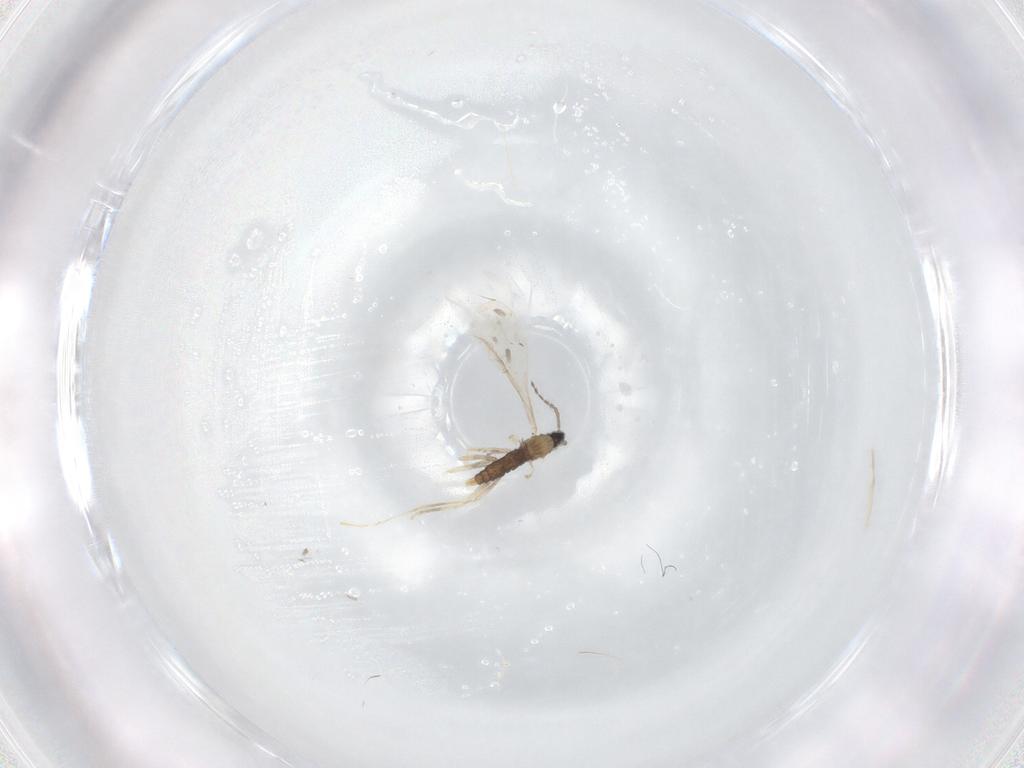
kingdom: Animalia
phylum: Arthropoda
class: Insecta
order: Diptera
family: Cecidomyiidae
